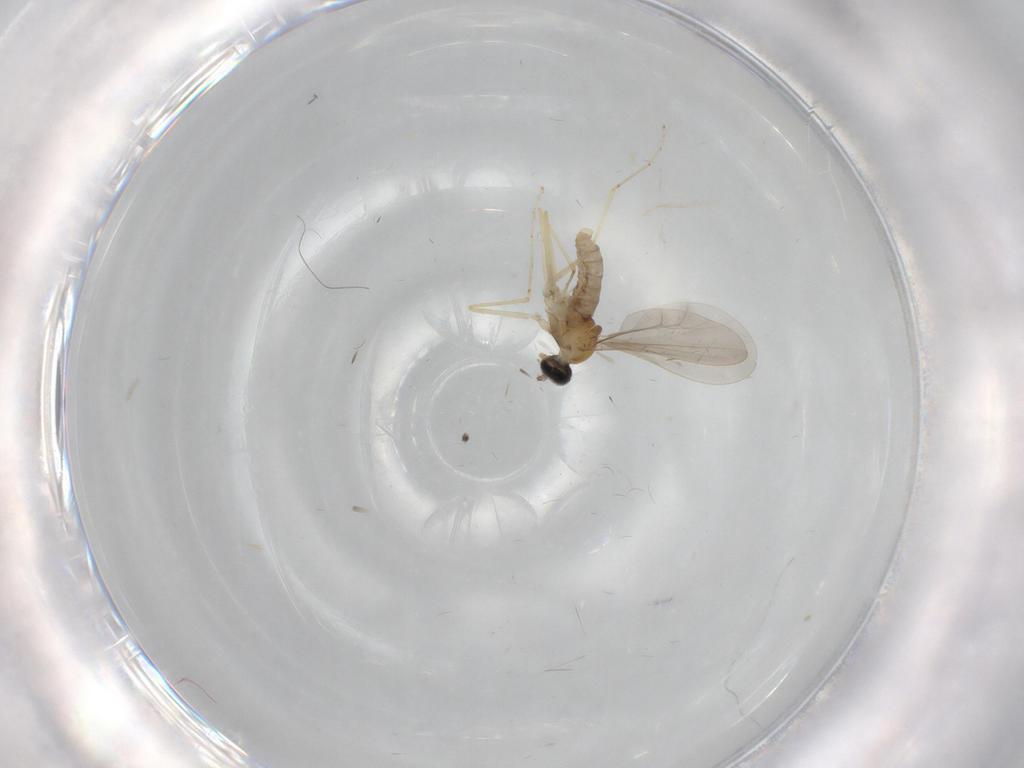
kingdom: Animalia
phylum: Arthropoda
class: Insecta
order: Diptera
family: Cecidomyiidae
